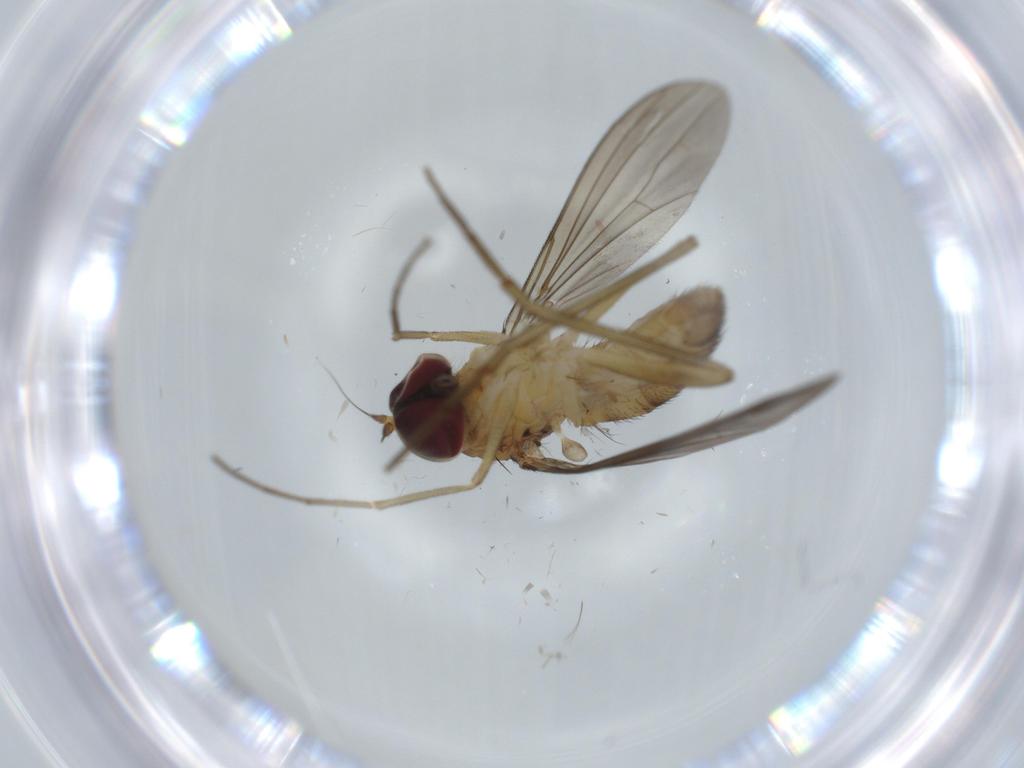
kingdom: Animalia
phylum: Arthropoda
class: Insecta
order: Diptera
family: Dolichopodidae
